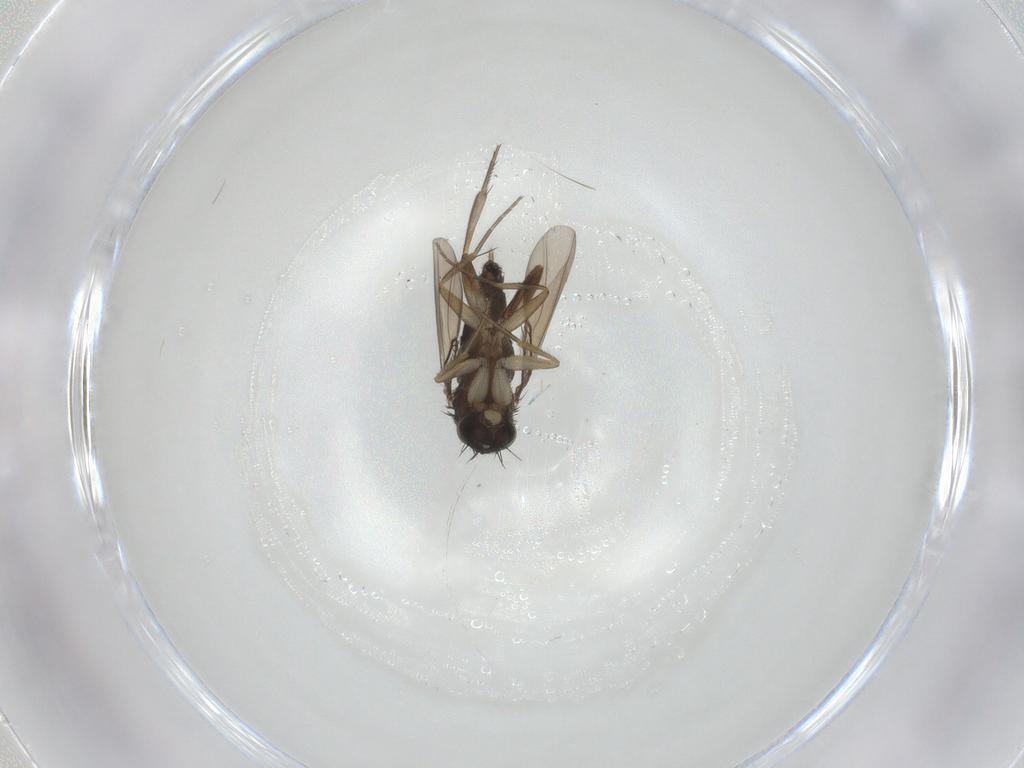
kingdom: Animalia
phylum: Arthropoda
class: Insecta
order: Diptera
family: Phoridae
